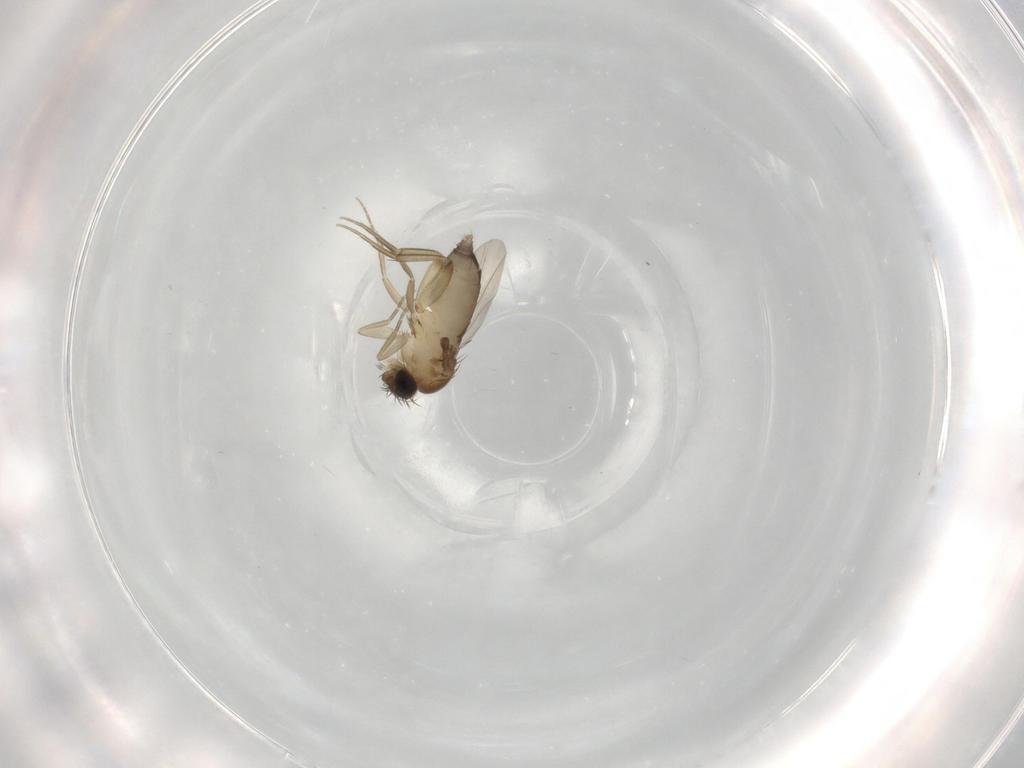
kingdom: Animalia
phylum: Arthropoda
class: Insecta
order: Diptera
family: Phoridae
